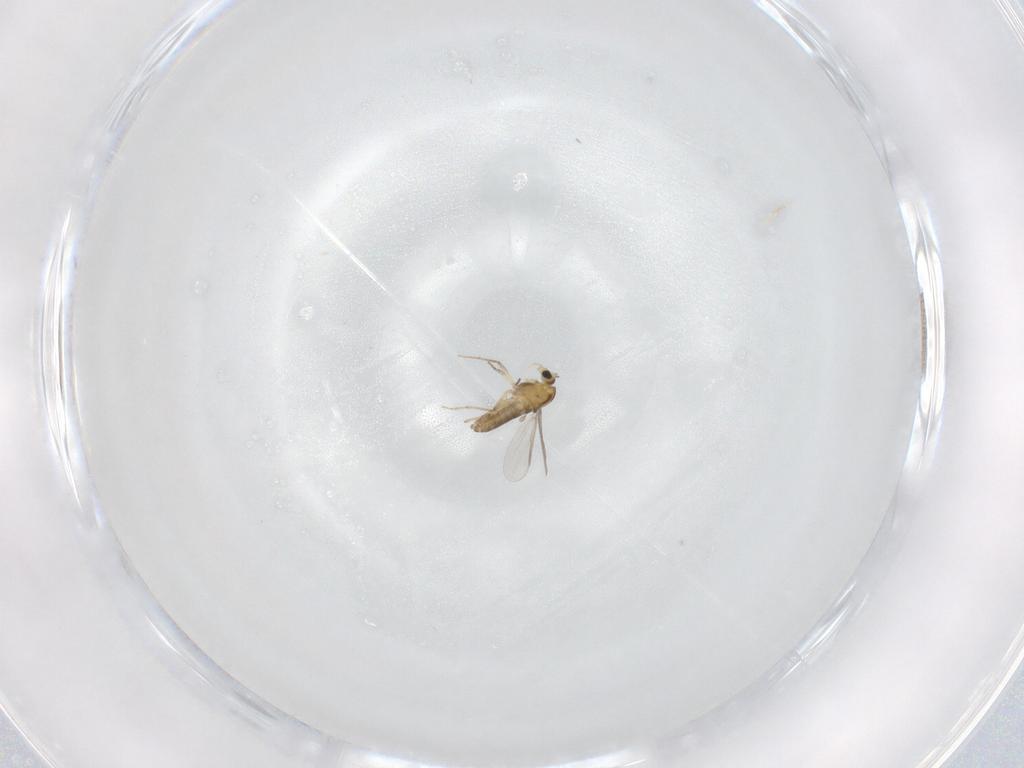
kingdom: Animalia
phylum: Arthropoda
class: Insecta
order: Diptera
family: Chironomidae
